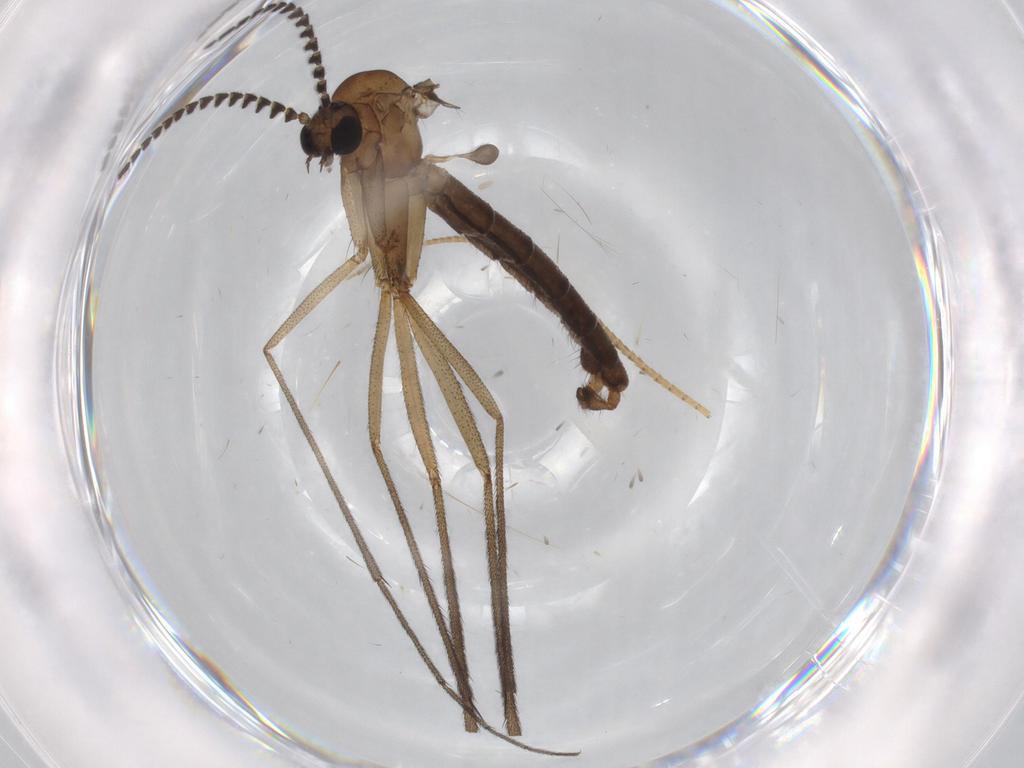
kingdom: Animalia
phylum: Arthropoda
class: Insecta
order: Diptera
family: Ditomyiidae
